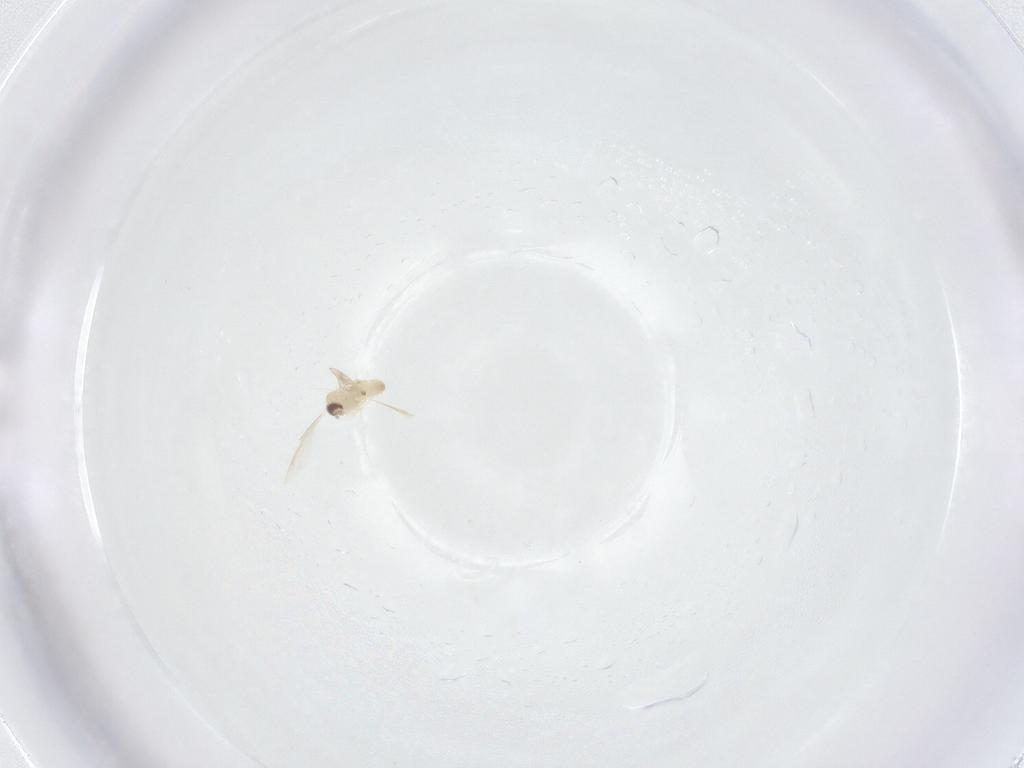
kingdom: Animalia
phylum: Arthropoda
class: Insecta
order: Diptera
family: Cecidomyiidae
